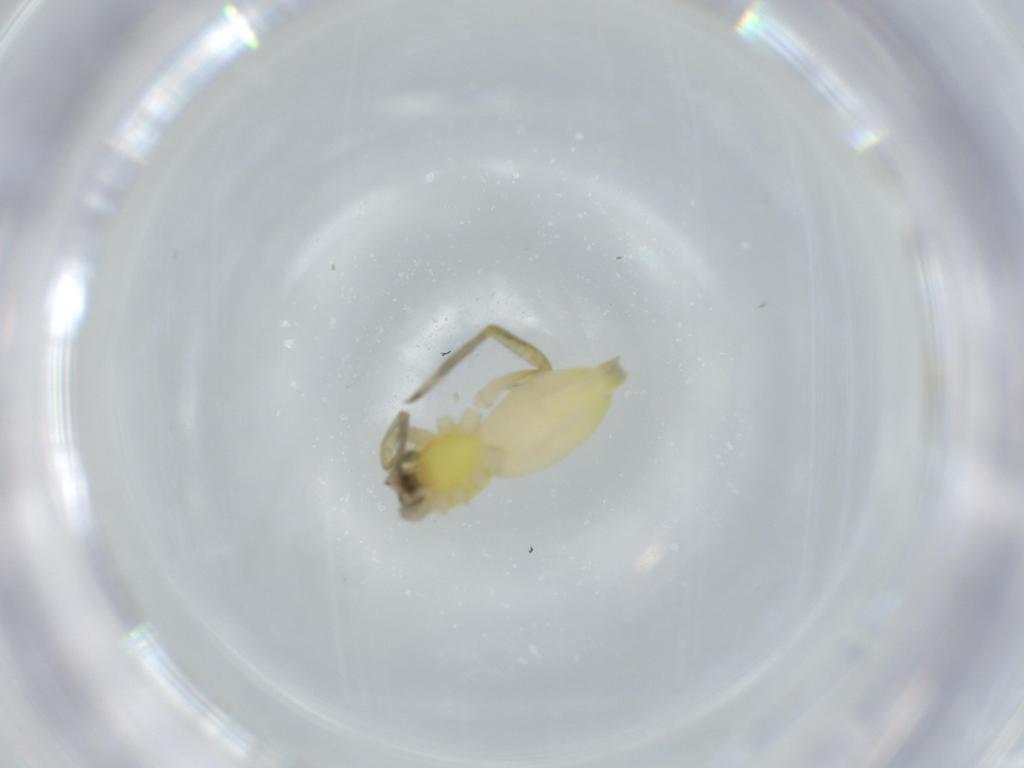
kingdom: Animalia
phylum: Arthropoda
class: Arachnida
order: Araneae
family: Anyphaenidae
